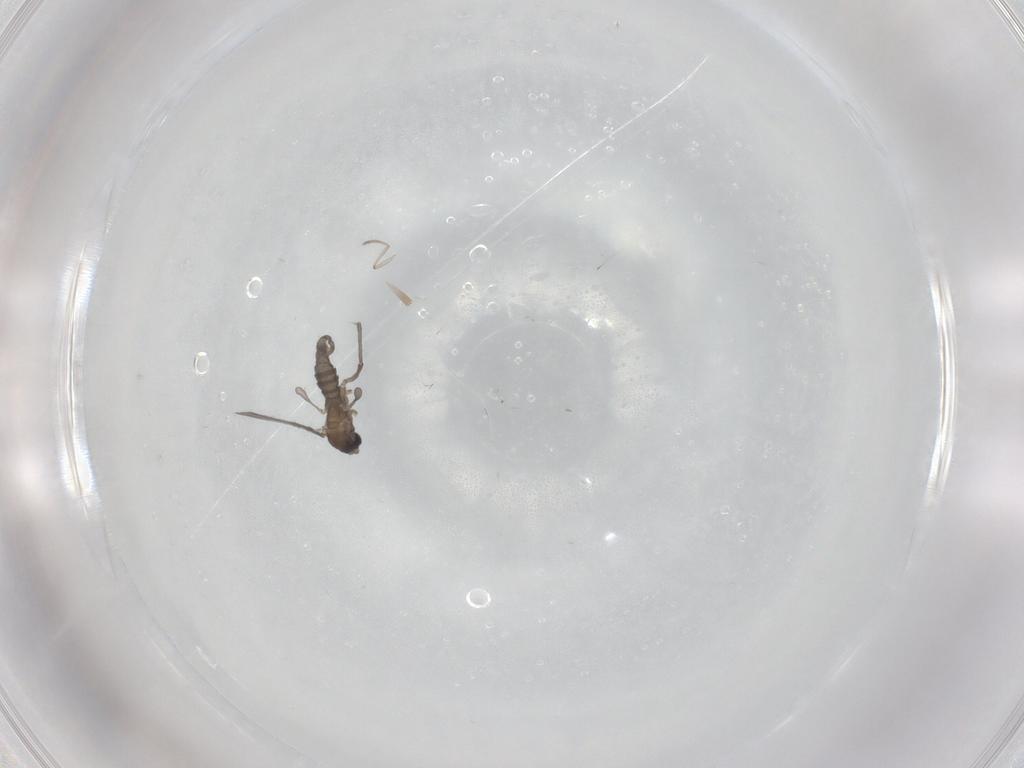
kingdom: Animalia
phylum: Arthropoda
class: Insecta
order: Diptera
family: Sciaridae
